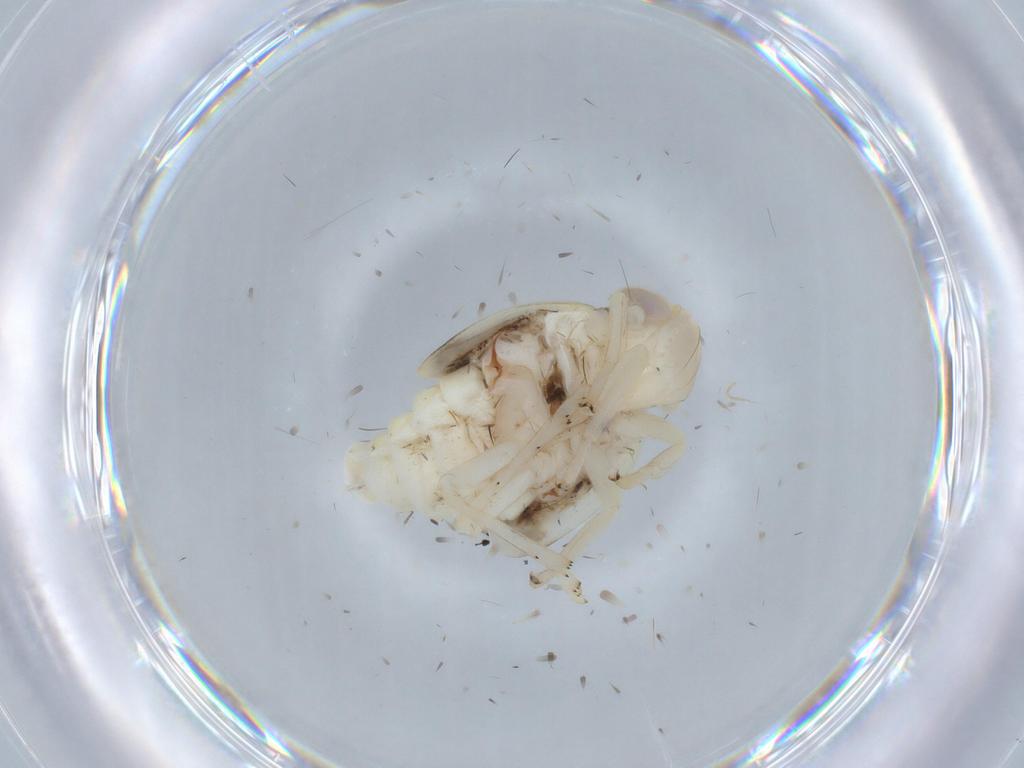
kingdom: Animalia
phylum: Arthropoda
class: Insecta
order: Hemiptera
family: Nogodinidae
